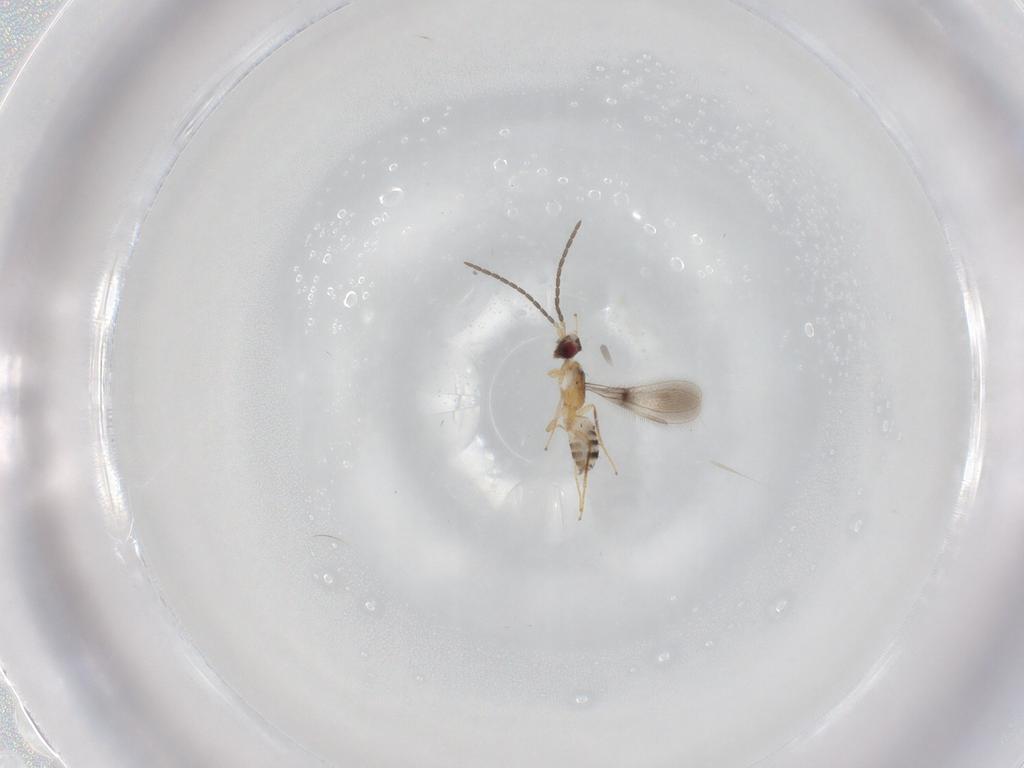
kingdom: Animalia
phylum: Arthropoda
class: Insecta
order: Diptera
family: Limoniidae
